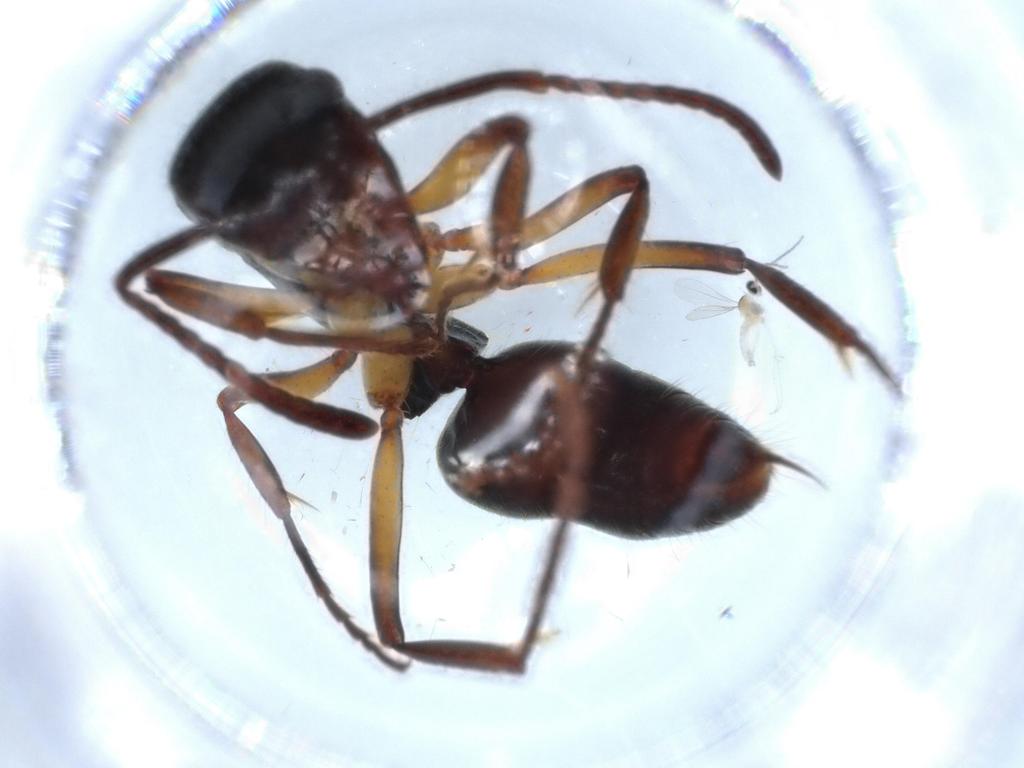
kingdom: Animalia
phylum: Arthropoda
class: Insecta
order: Hymenoptera
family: Formicidae
